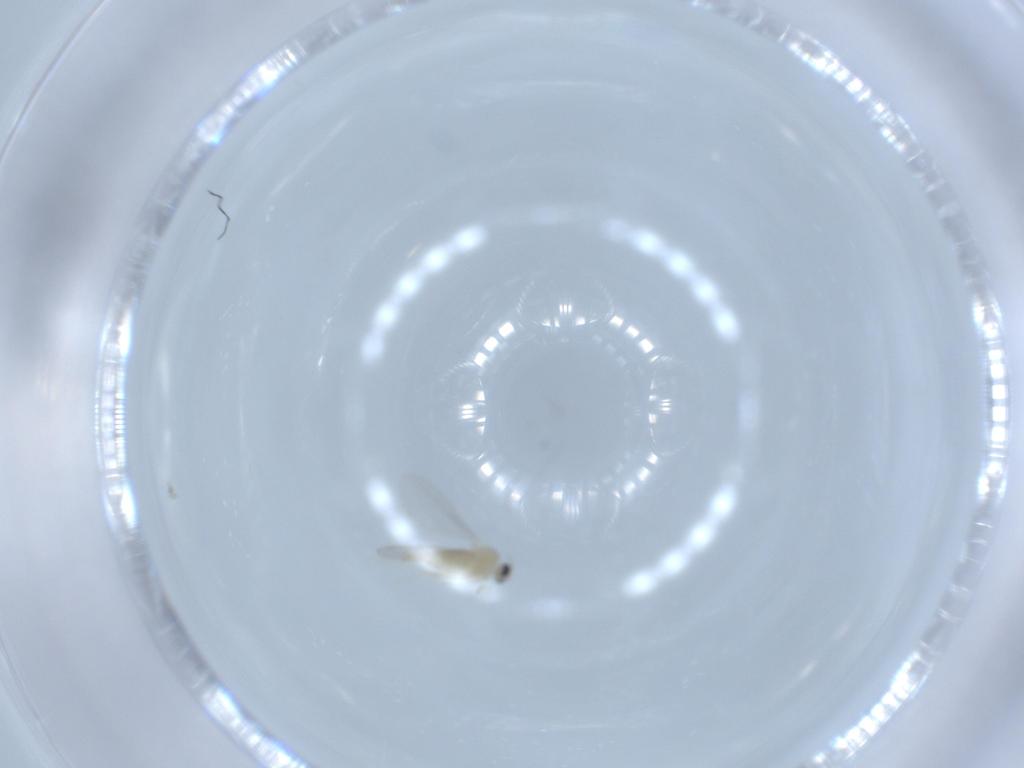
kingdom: Animalia
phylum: Arthropoda
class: Insecta
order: Diptera
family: Cecidomyiidae
